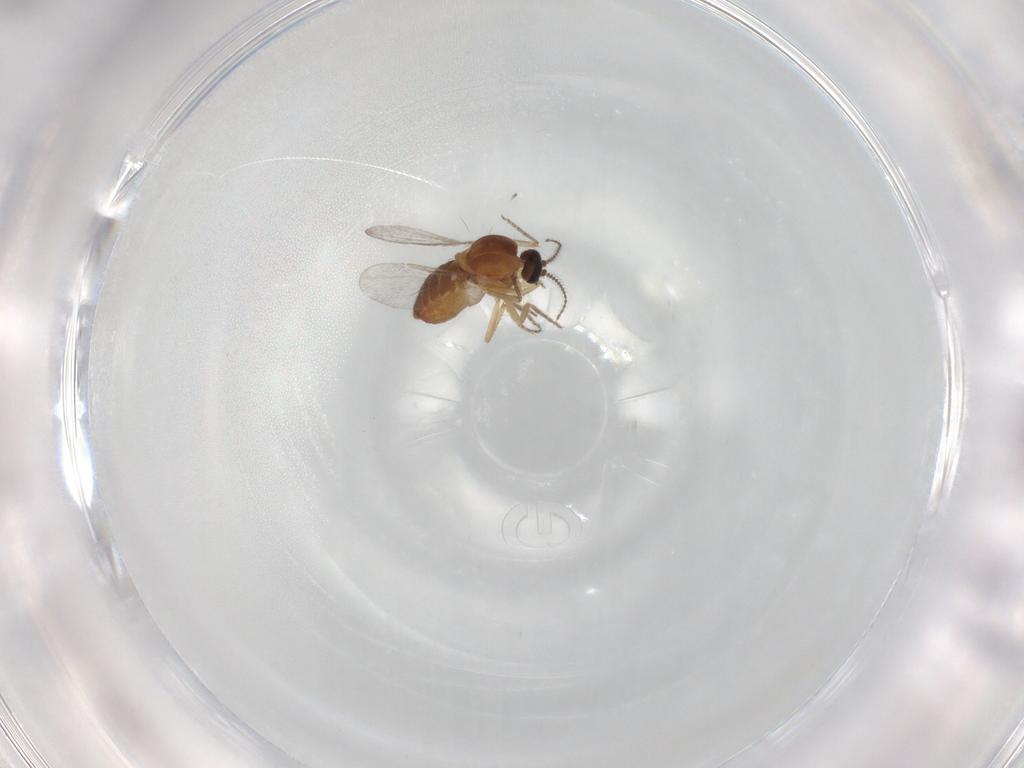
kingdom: Animalia
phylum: Arthropoda
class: Insecta
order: Diptera
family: Ceratopogonidae
